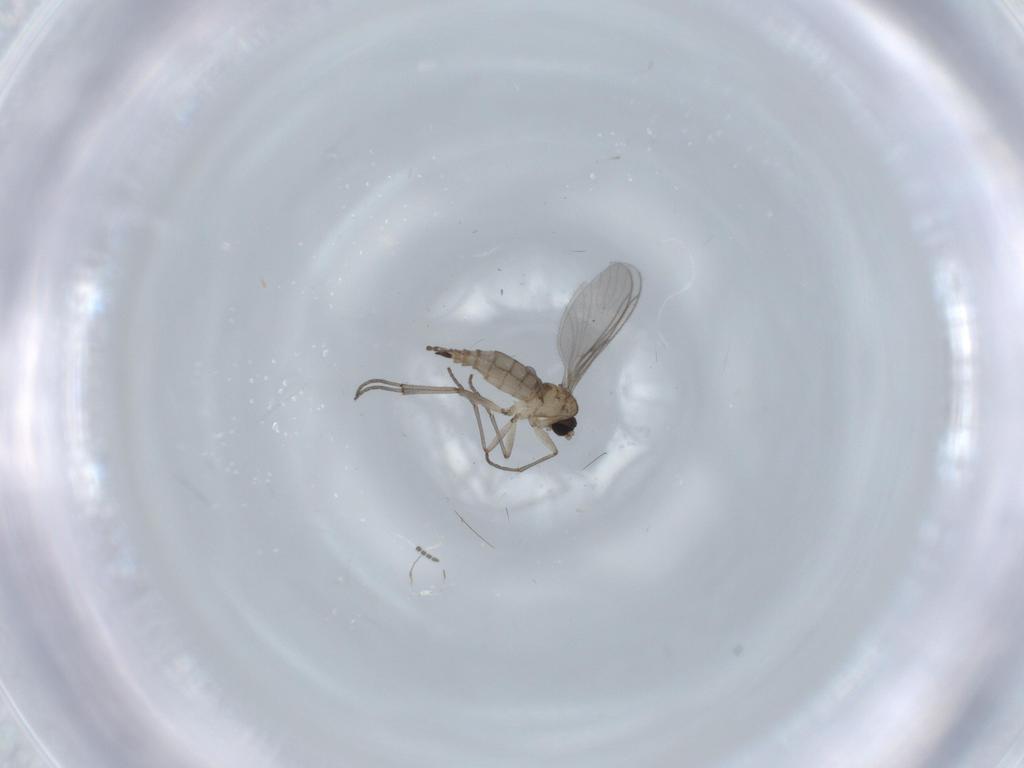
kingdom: Animalia
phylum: Arthropoda
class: Insecta
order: Diptera
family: Sciaridae
